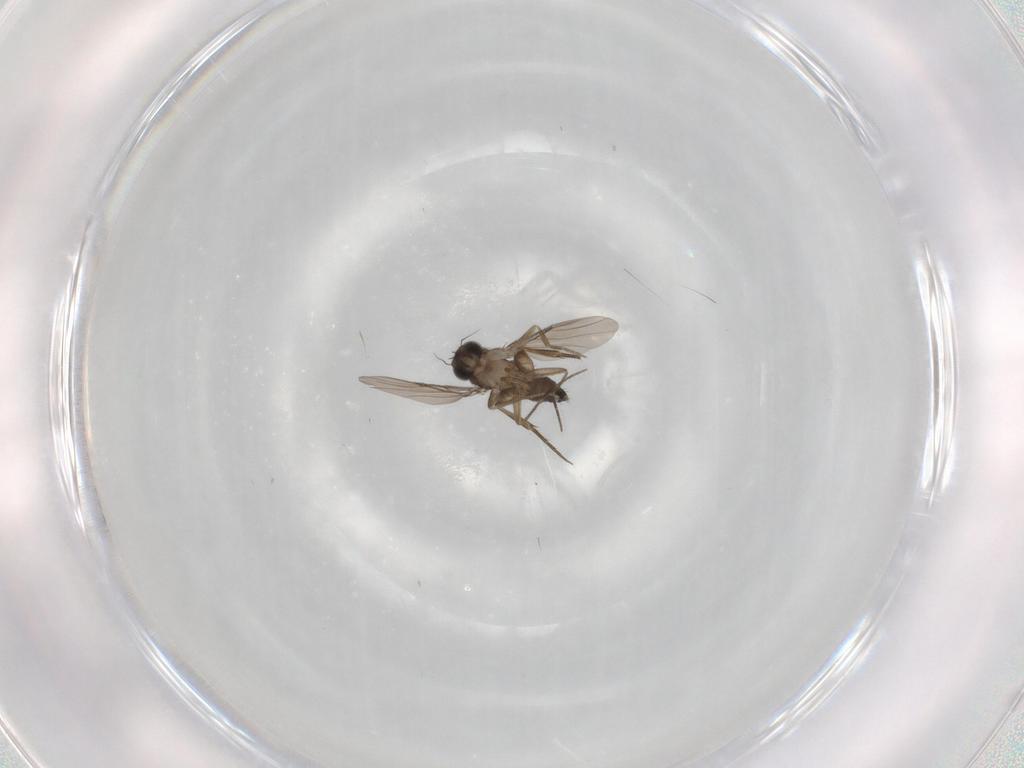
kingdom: Animalia
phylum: Arthropoda
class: Insecta
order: Diptera
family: Phoridae
